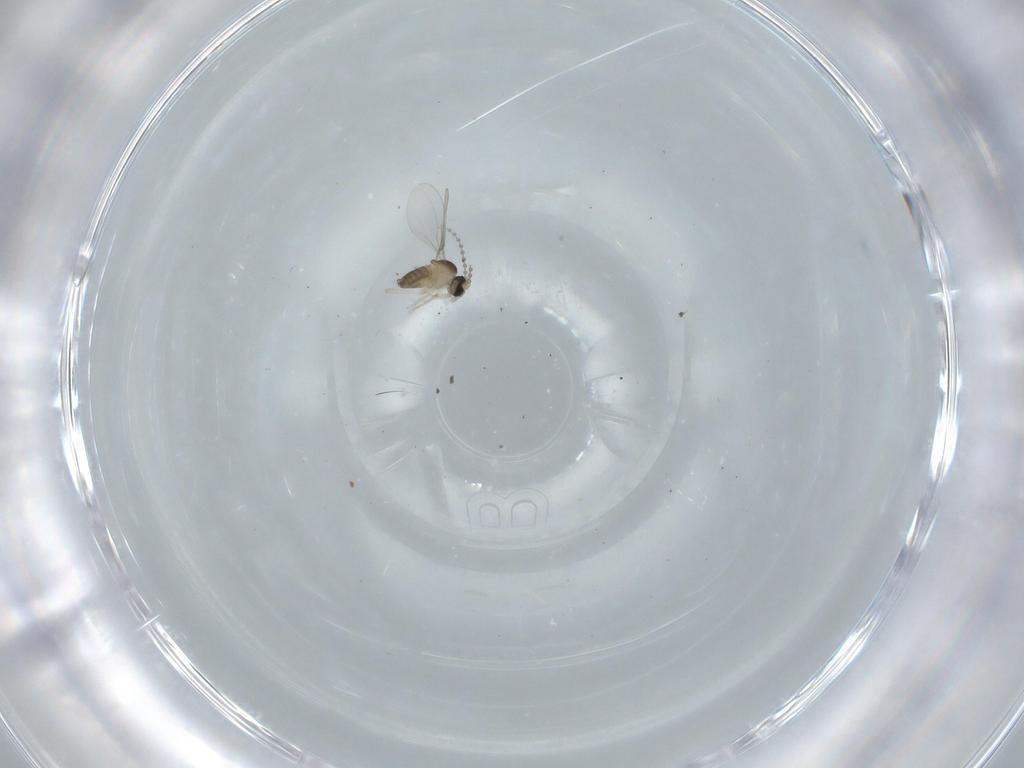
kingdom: Animalia
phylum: Arthropoda
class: Insecta
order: Diptera
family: Cecidomyiidae
